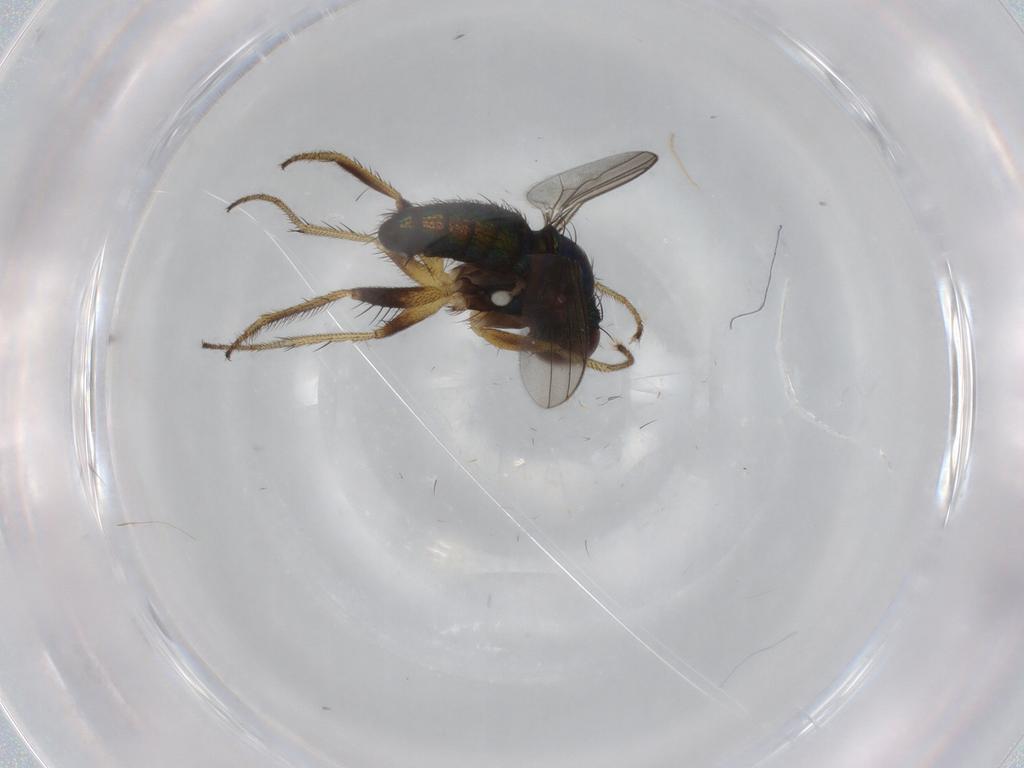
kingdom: Animalia
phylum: Arthropoda
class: Insecta
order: Diptera
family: Dolichopodidae
